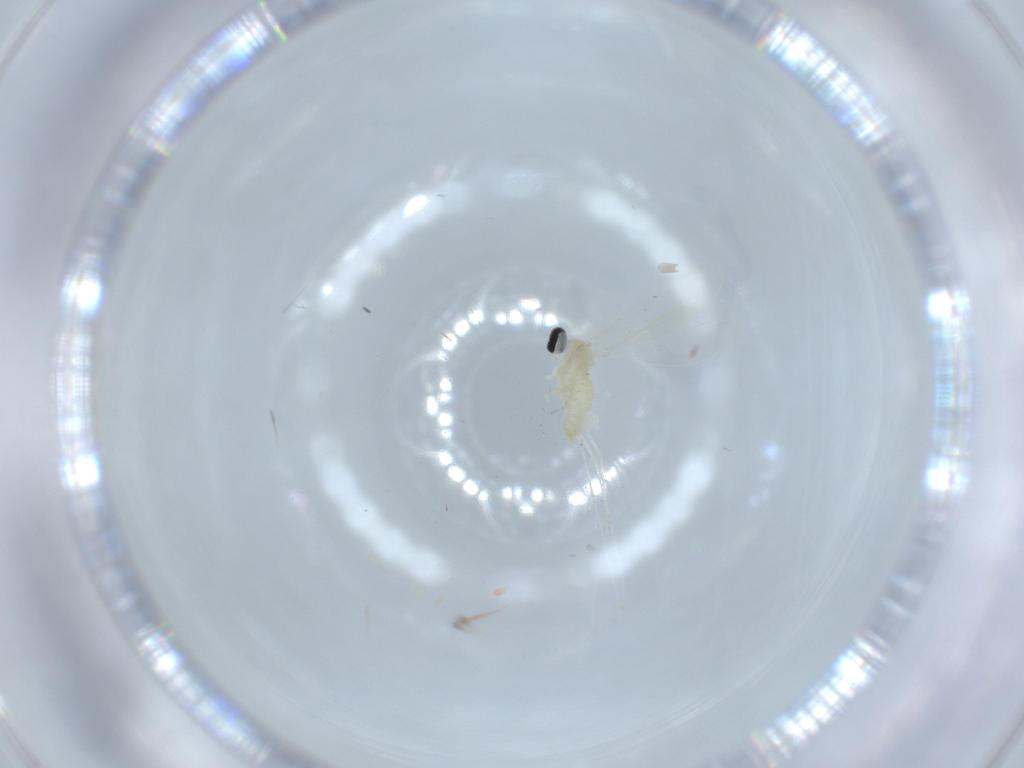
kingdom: Animalia
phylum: Arthropoda
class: Insecta
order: Diptera
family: Cecidomyiidae
